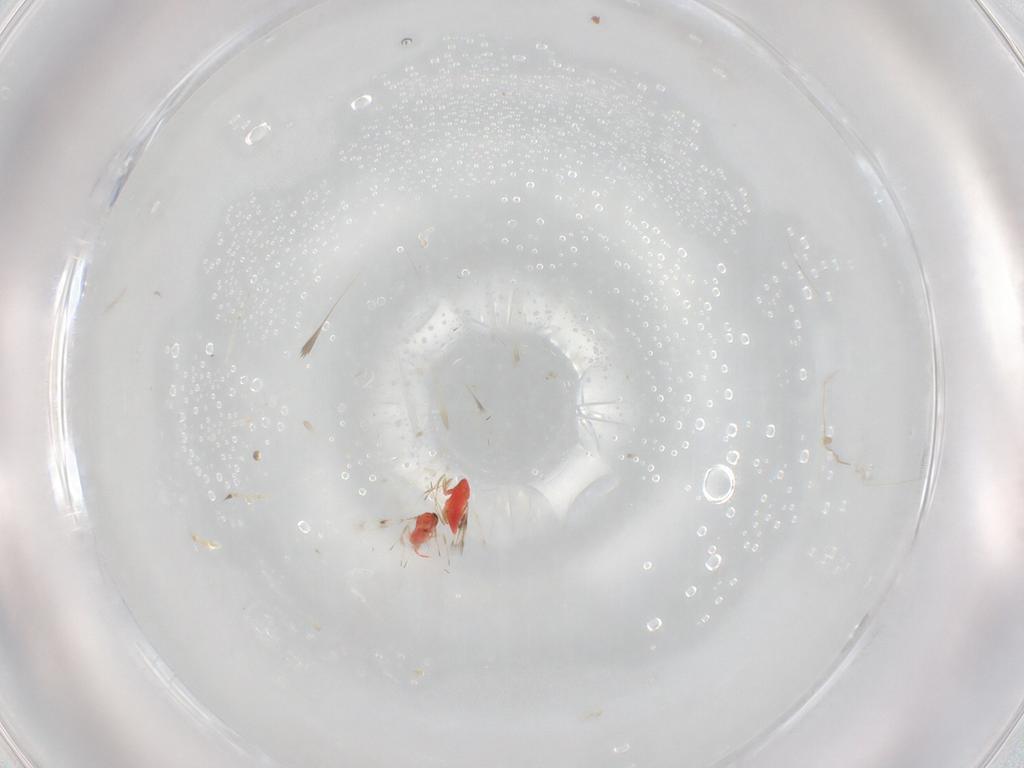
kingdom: Animalia
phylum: Arthropoda
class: Insecta
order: Hymenoptera
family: Trichogrammatidae
